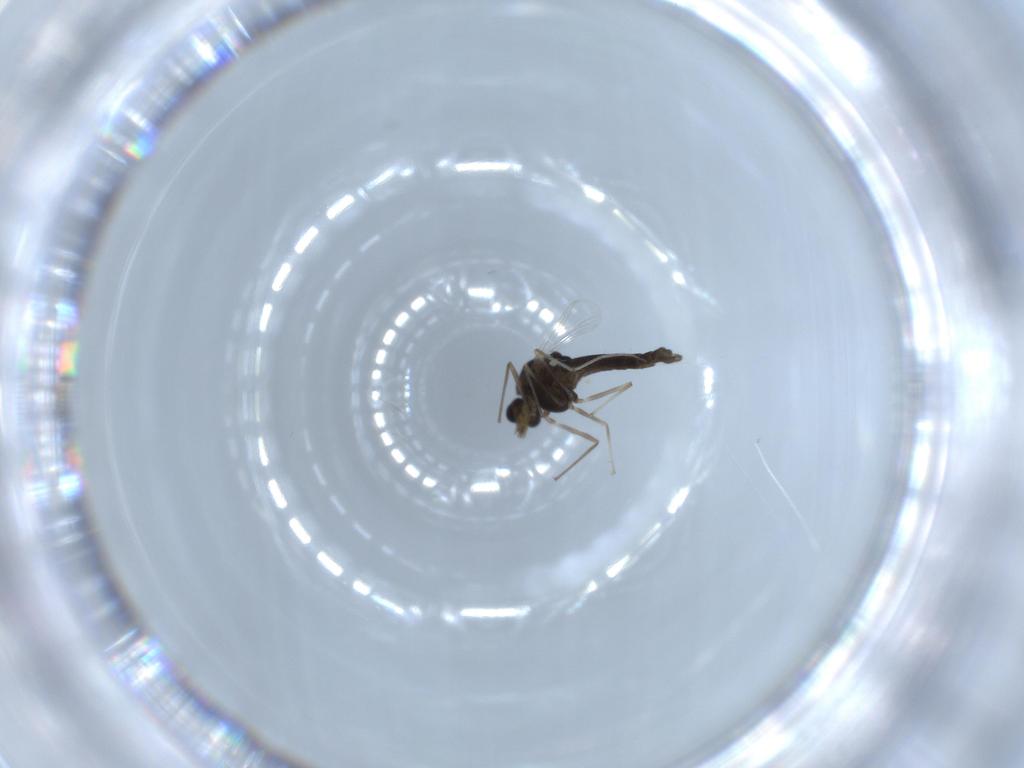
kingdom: Animalia
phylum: Arthropoda
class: Insecta
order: Diptera
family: Chironomidae
